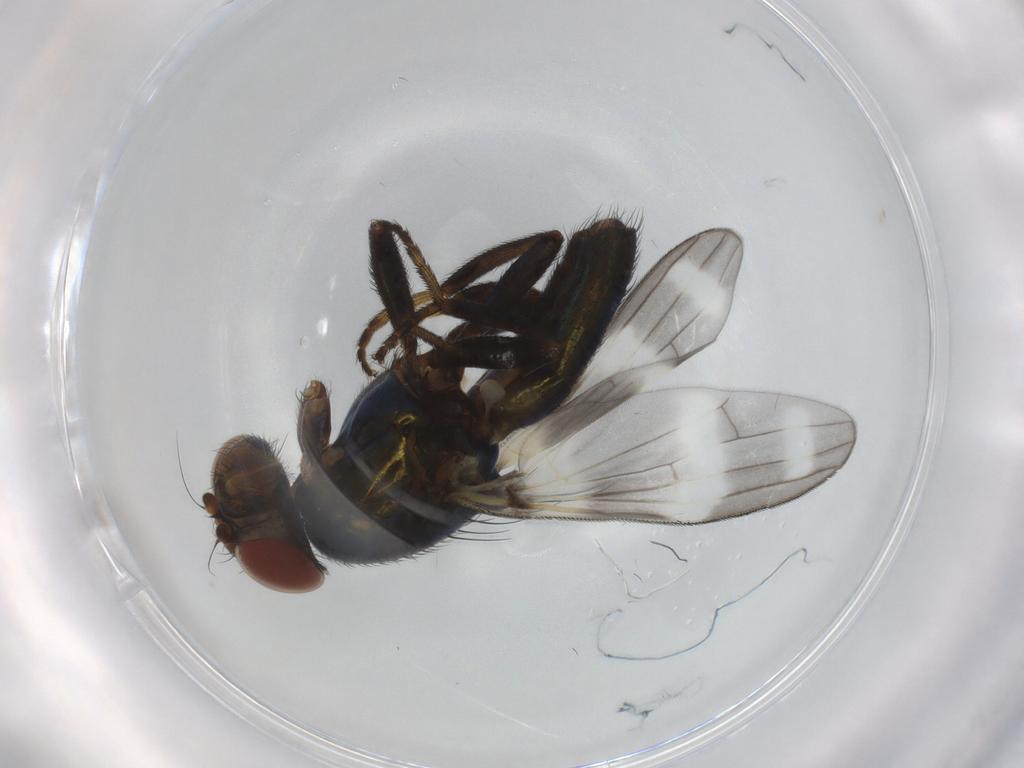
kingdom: Animalia
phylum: Arthropoda
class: Insecta
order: Diptera
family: Ulidiidae
